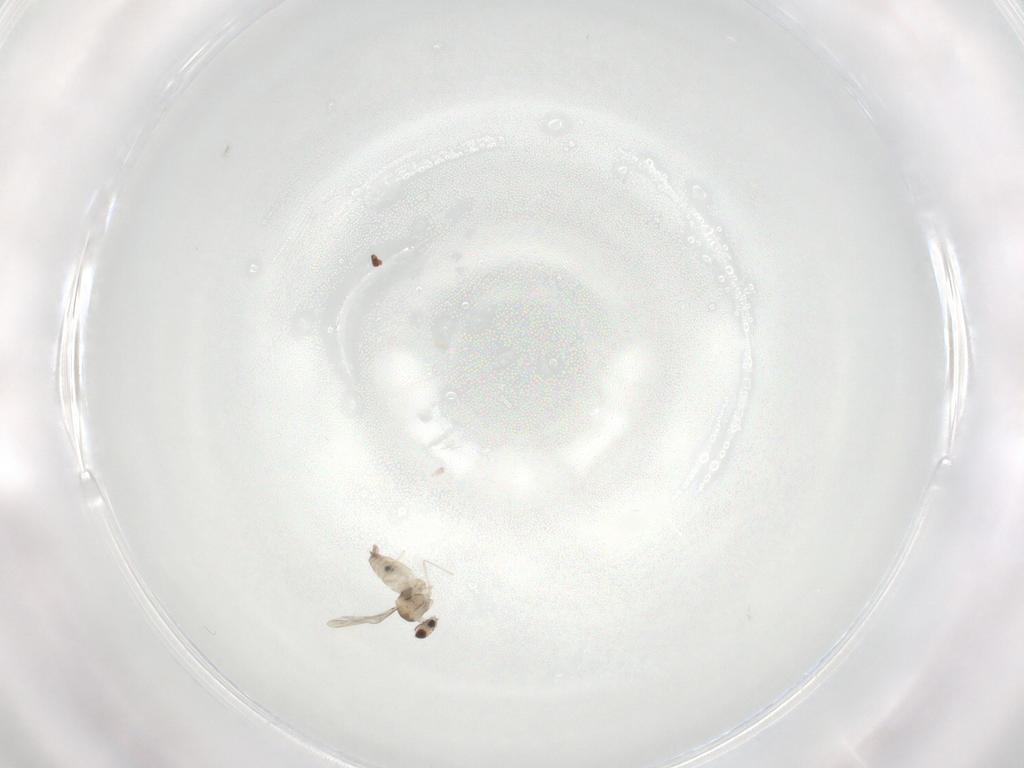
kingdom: Animalia
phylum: Arthropoda
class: Insecta
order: Diptera
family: Cecidomyiidae
